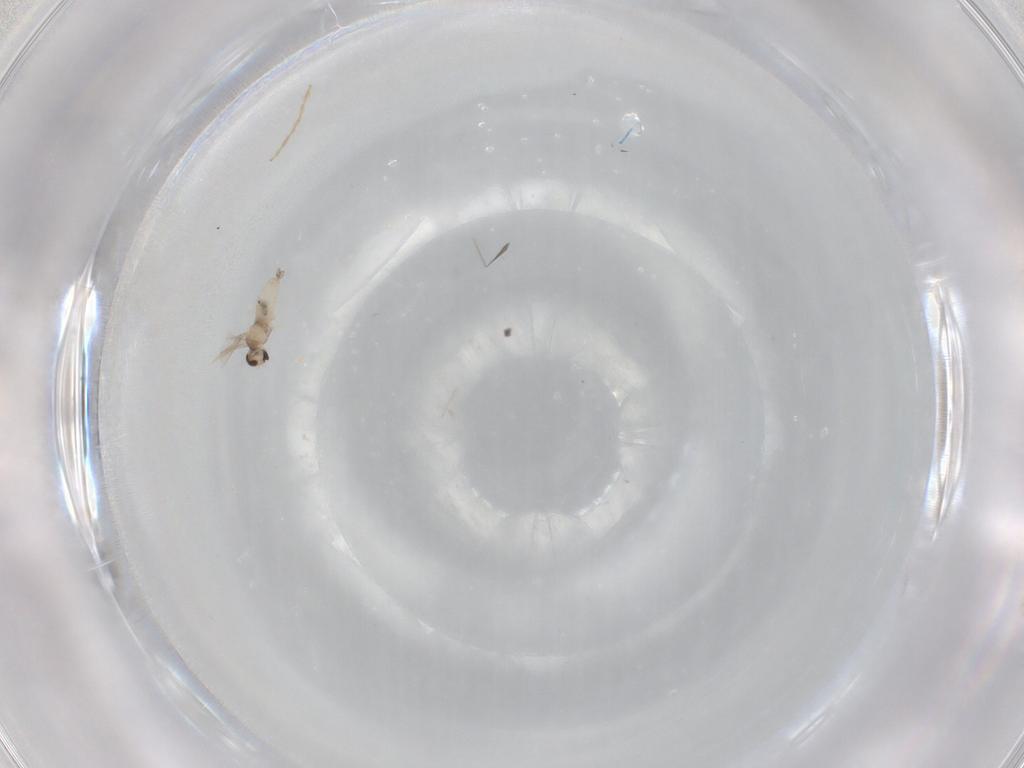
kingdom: Animalia
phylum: Arthropoda
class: Insecta
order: Diptera
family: Cecidomyiidae
